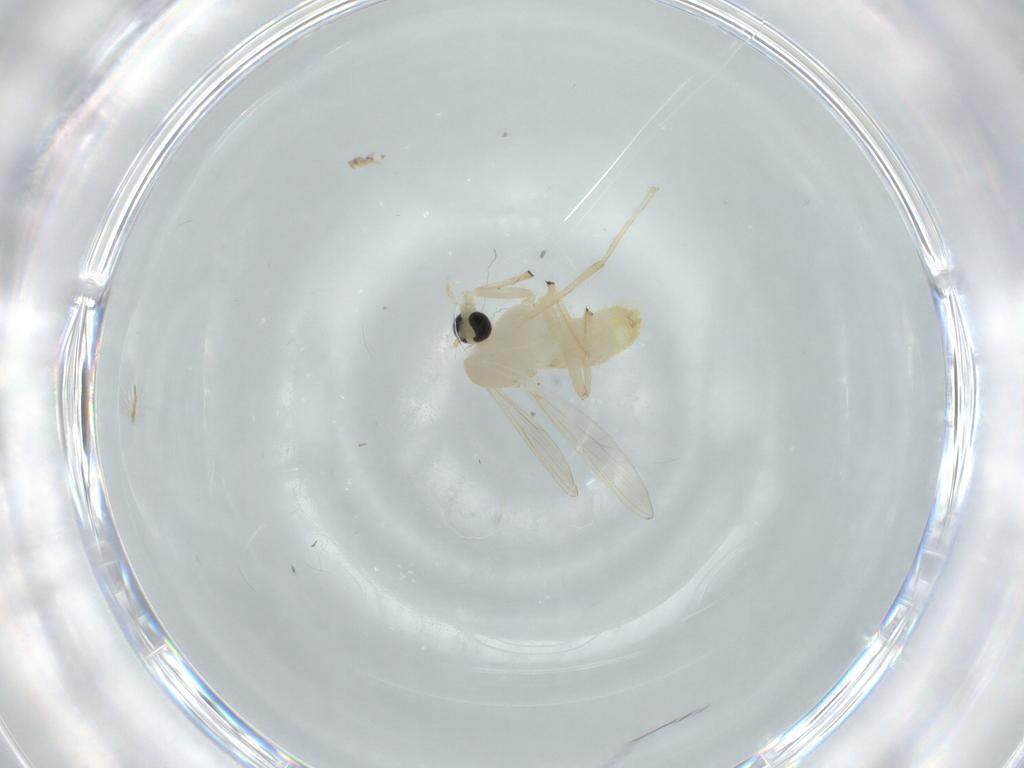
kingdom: Animalia
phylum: Arthropoda
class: Insecta
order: Diptera
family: Chironomidae
